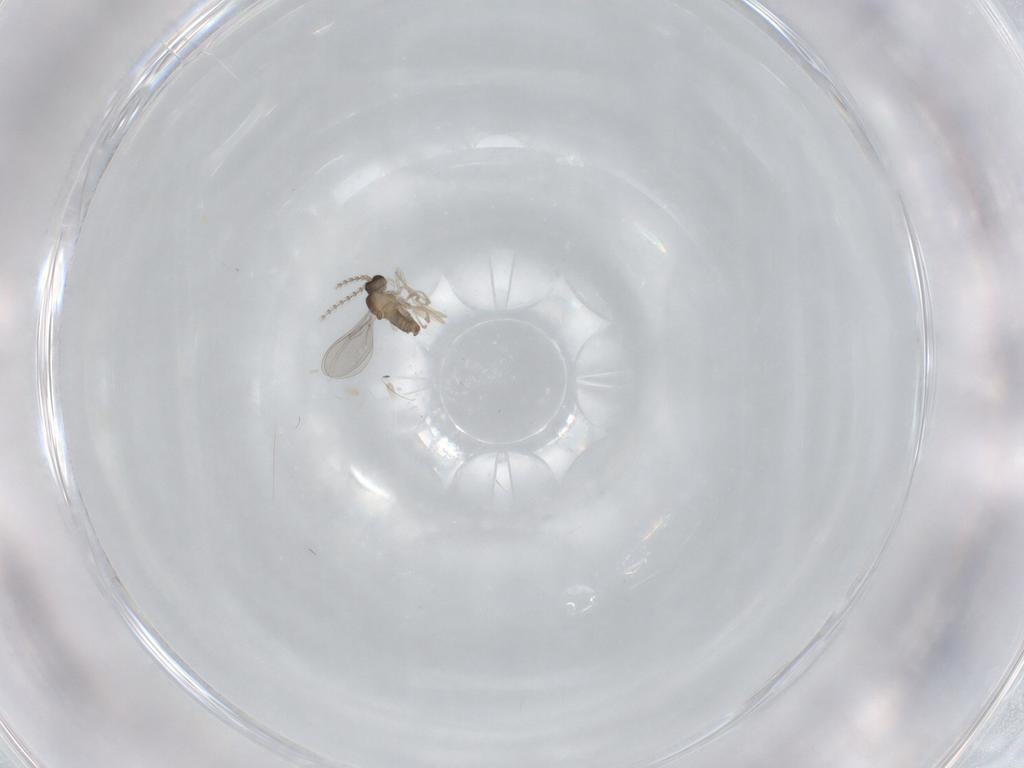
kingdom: Animalia
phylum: Arthropoda
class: Insecta
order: Diptera
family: Cecidomyiidae
